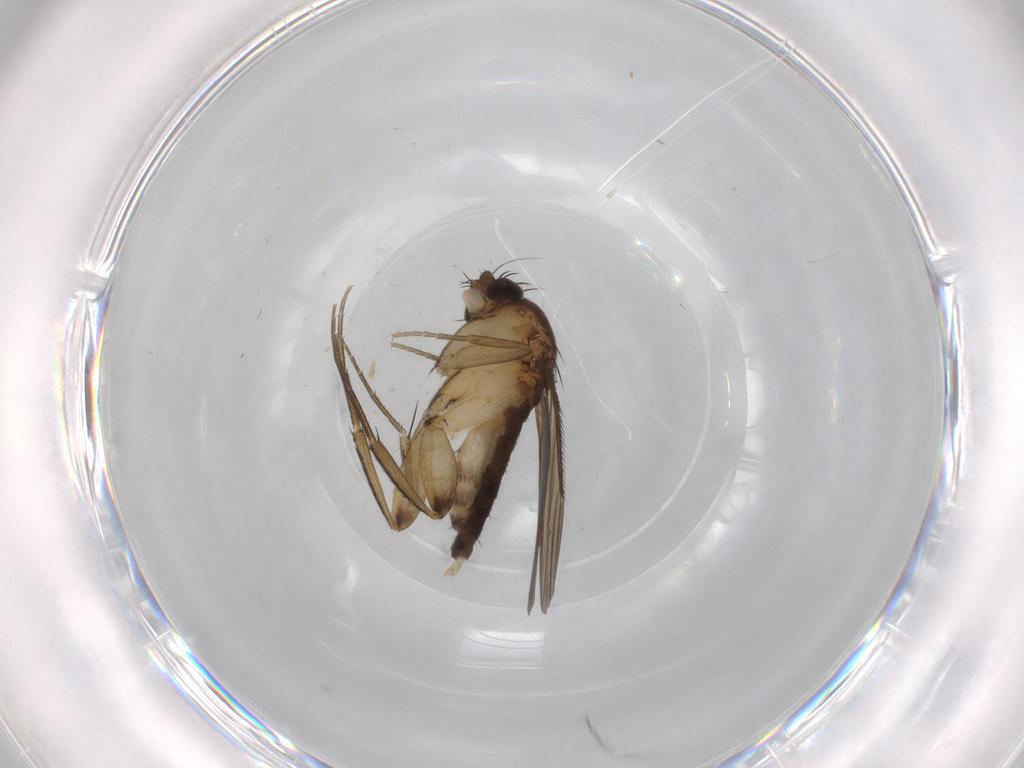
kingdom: Animalia
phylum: Arthropoda
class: Insecta
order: Diptera
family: Phoridae
